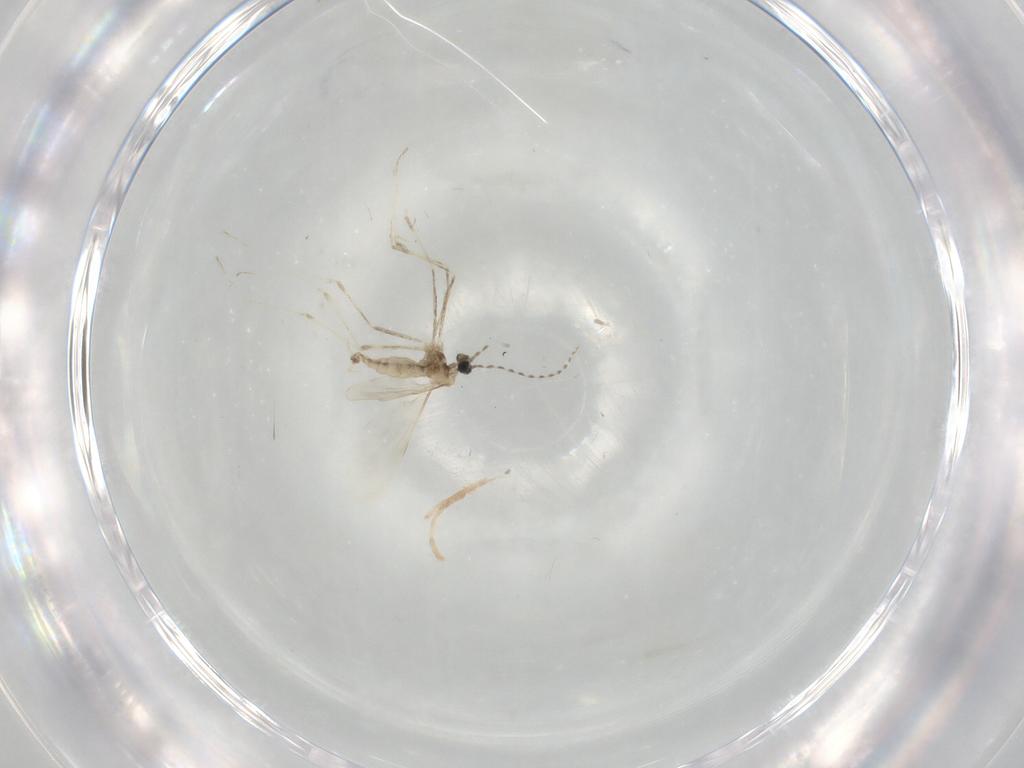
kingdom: Animalia
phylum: Arthropoda
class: Insecta
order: Diptera
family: Cecidomyiidae
